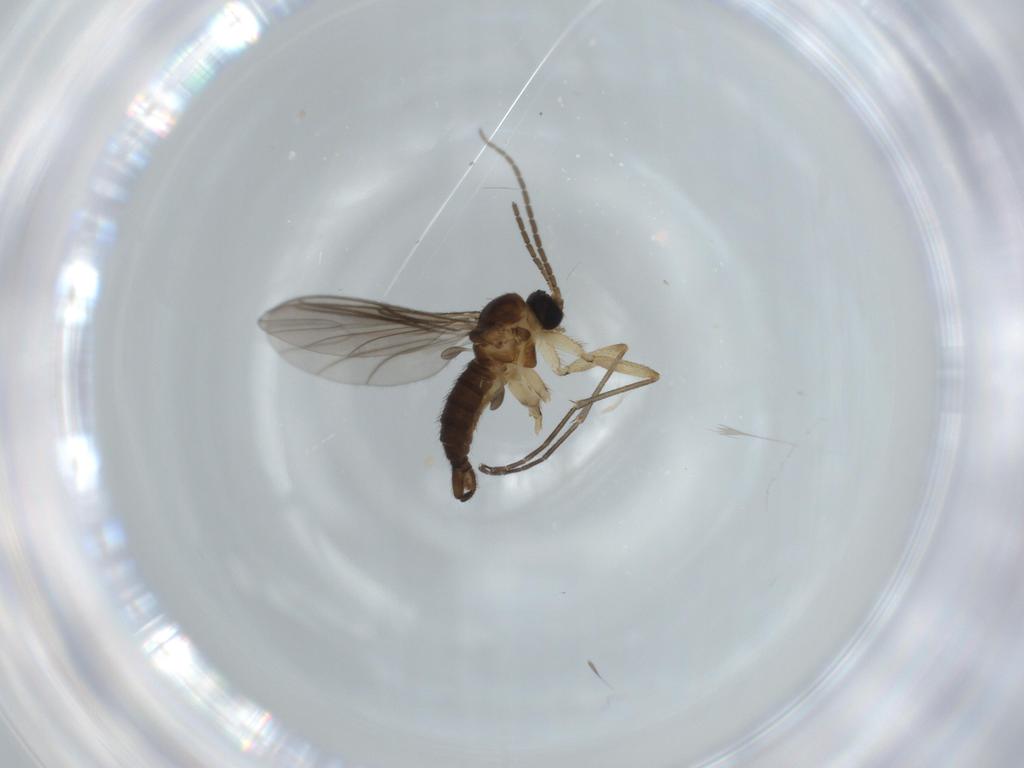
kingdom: Animalia
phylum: Arthropoda
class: Insecta
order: Diptera
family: Sciaridae
